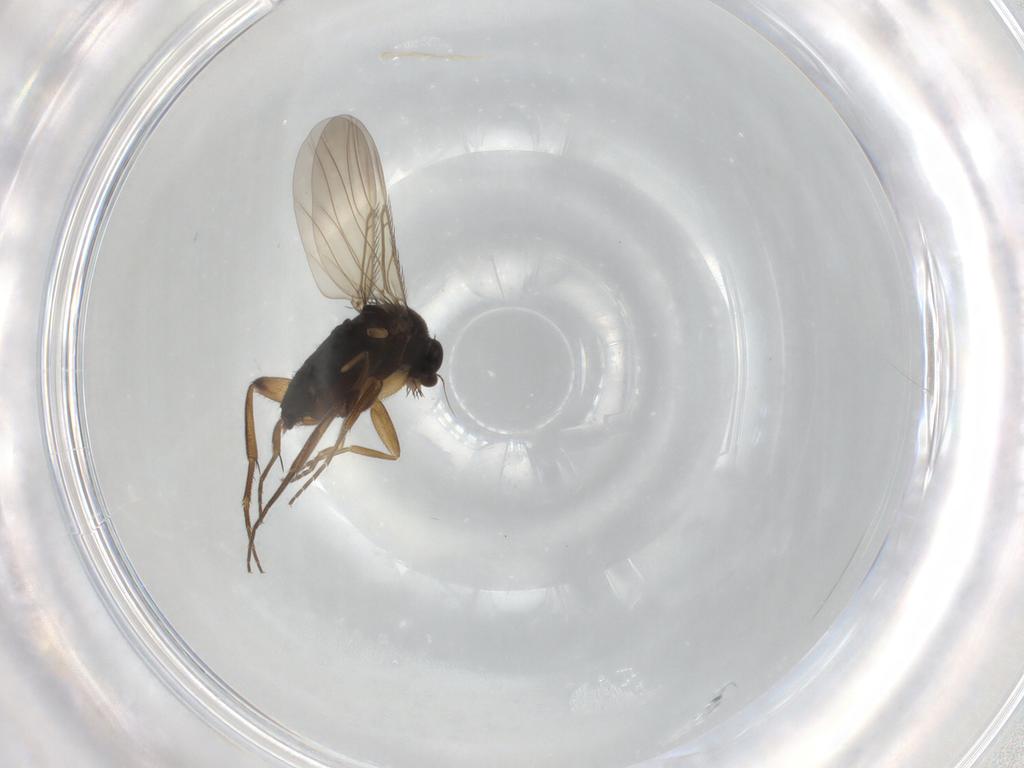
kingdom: Animalia
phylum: Arthropoda
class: Insecta
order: Diptera
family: Phoridae
